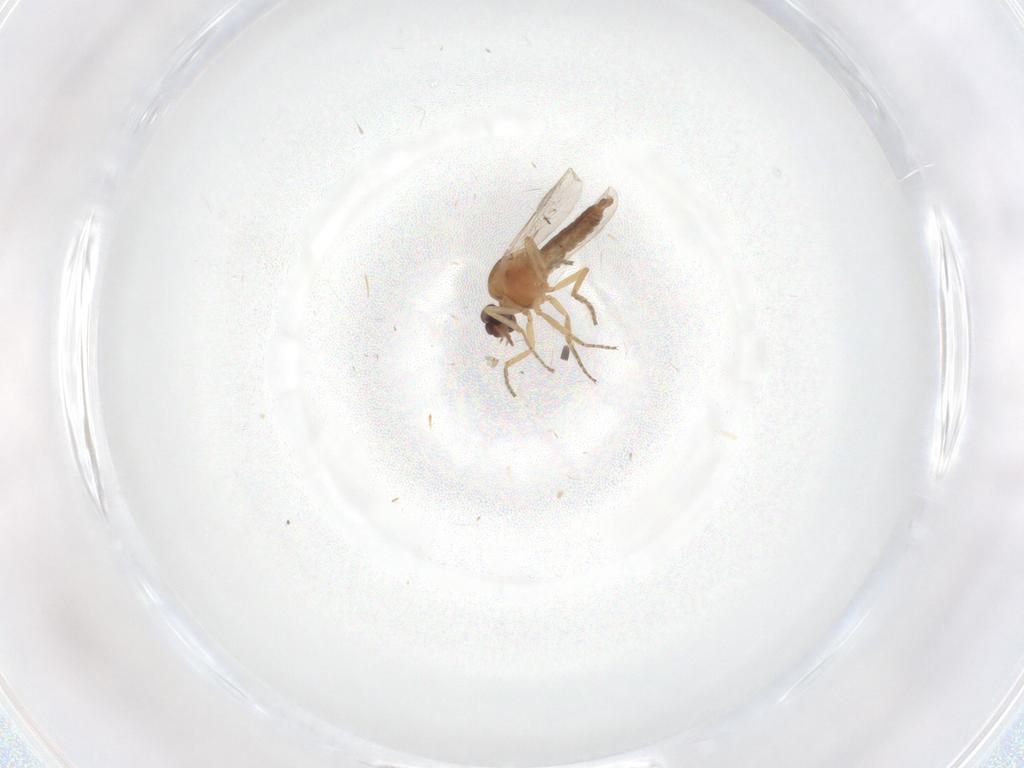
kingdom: Animalia
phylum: Arthropoda
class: Insecta
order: Diptera
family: Ceratopogonidae
